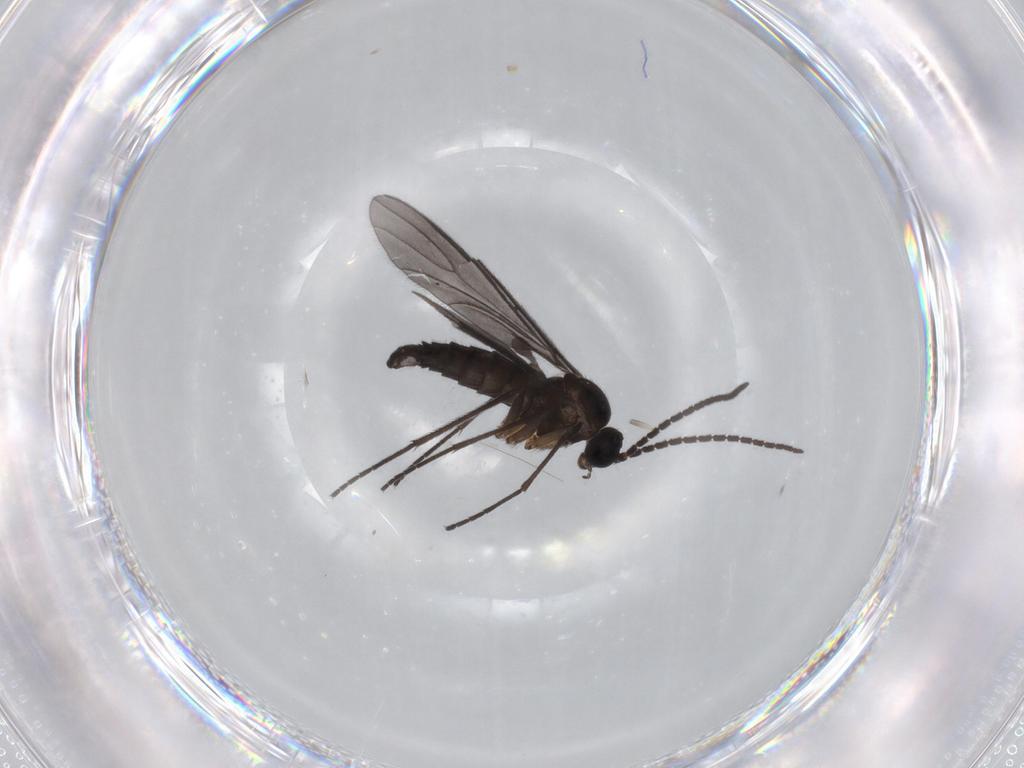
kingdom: Animalia
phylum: Arthropoda
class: Insecta
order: Diptera
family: Sciaridae
